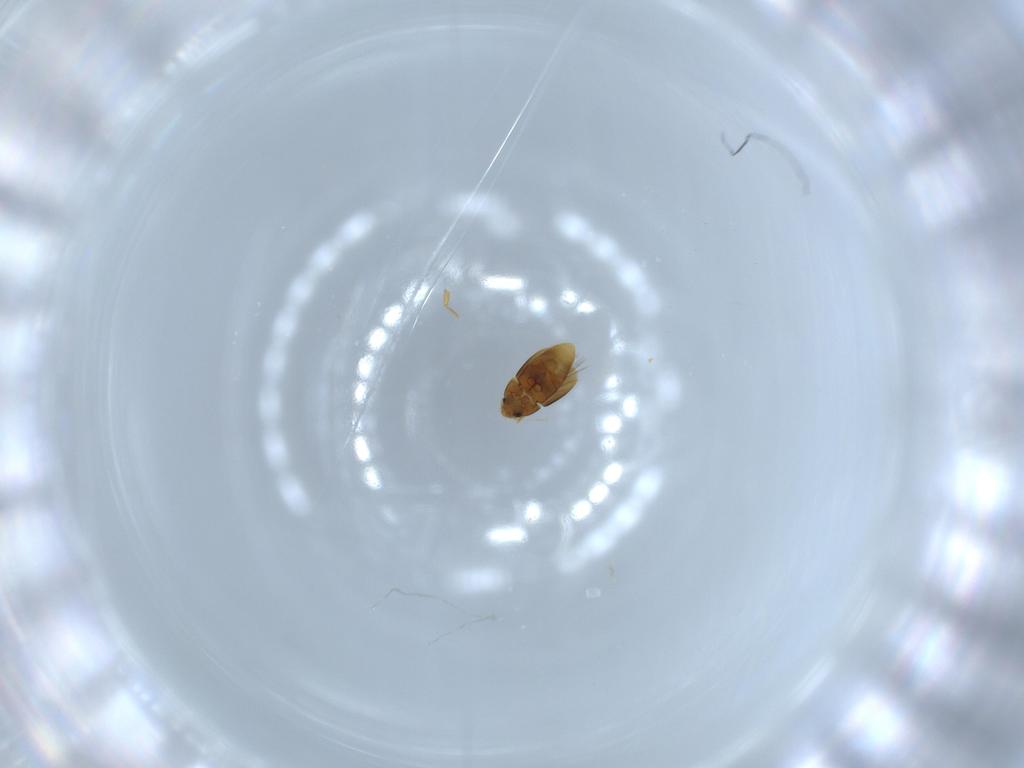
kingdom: Animalia
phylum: Arthropoda
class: Insecta
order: Coleoptera
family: Ptiliidae
